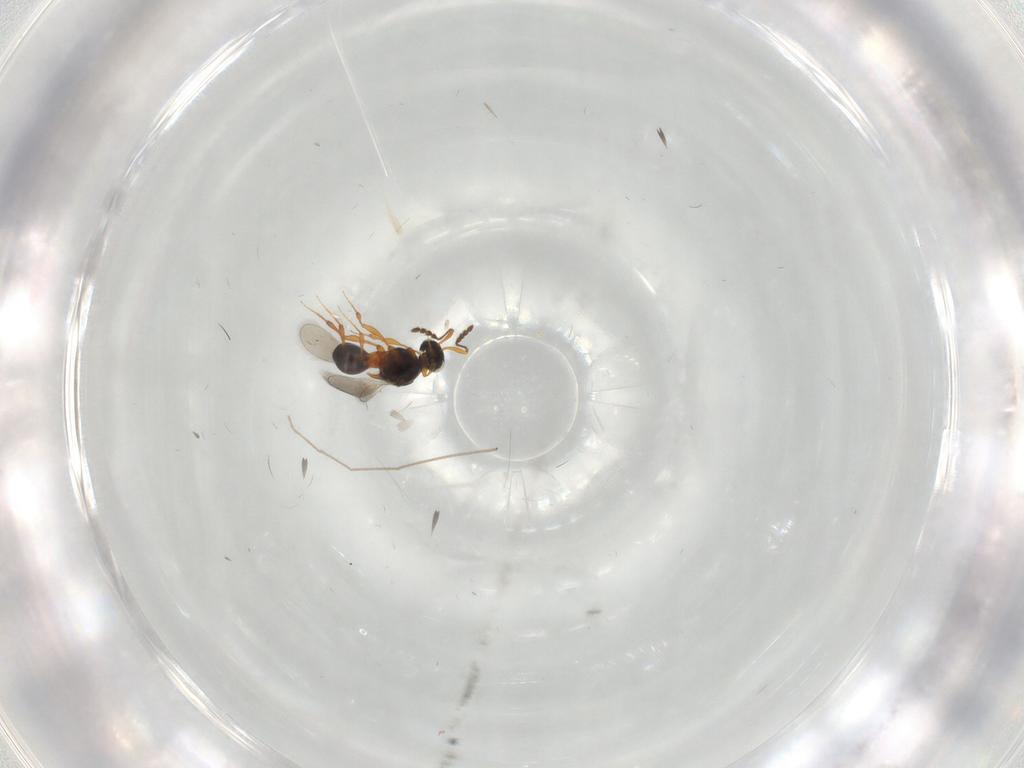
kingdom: Animalia
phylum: Arthropoda
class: Insecta
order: Hymenoptera
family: Platygastridae
